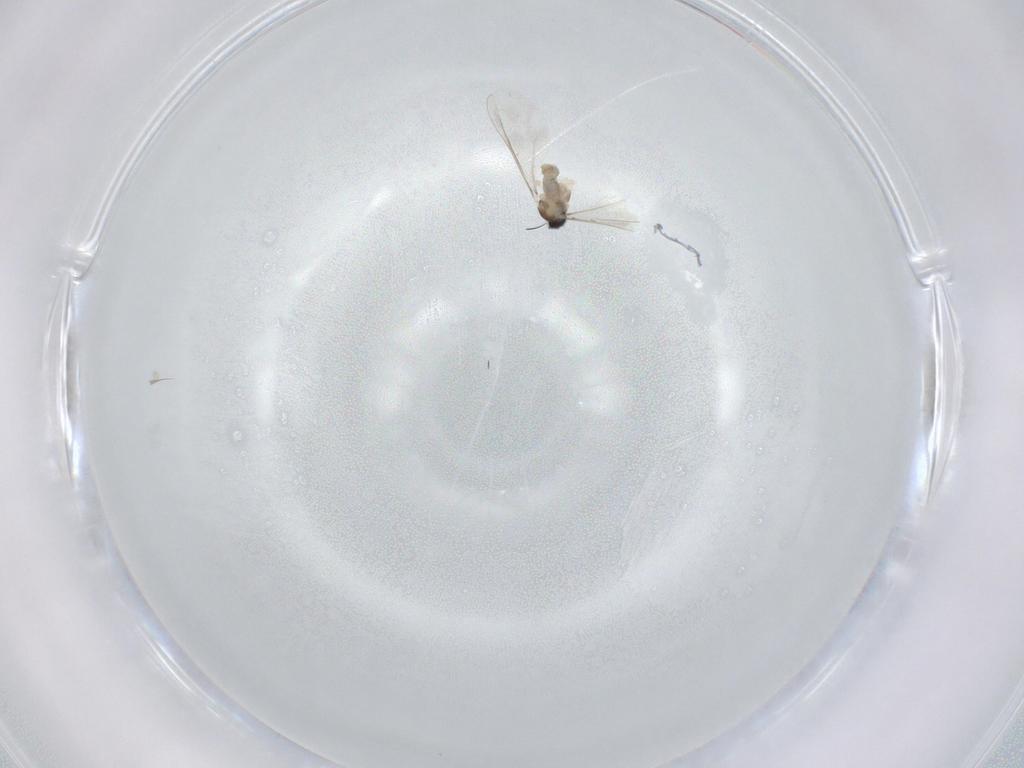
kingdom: Animalia
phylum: Arthropoda
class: Insecta
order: Diptera
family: Cecidomyiidae
